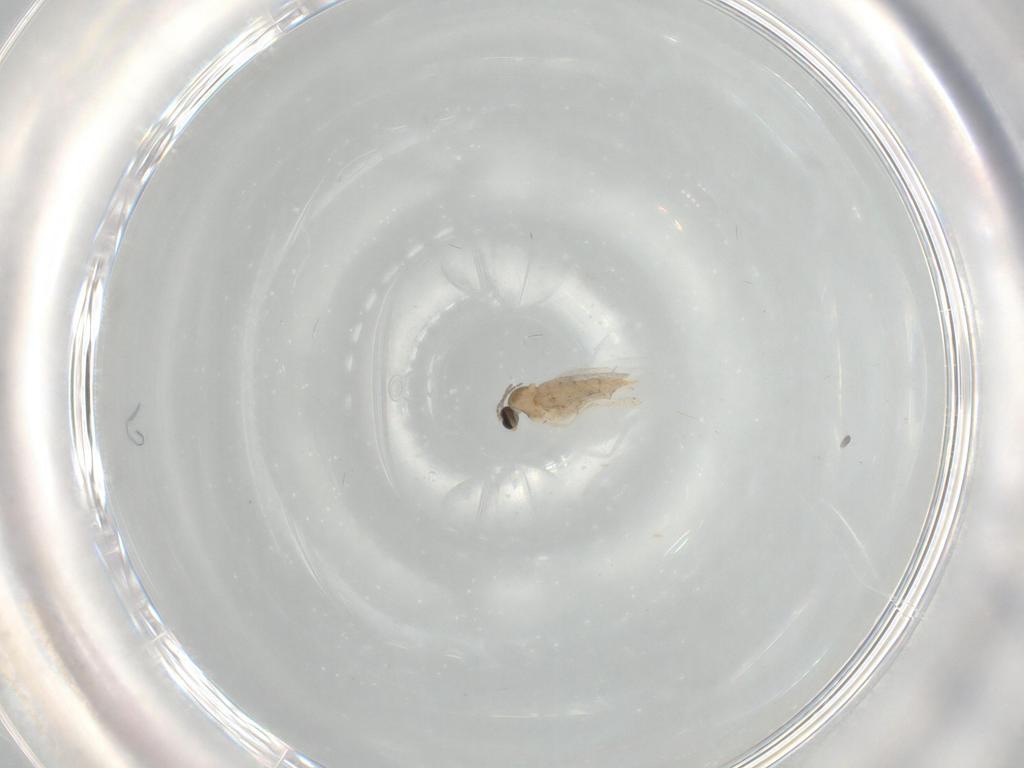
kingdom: Animalia
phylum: Arthropoda
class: Insecta
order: Diptera
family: Cecidomyiidae
